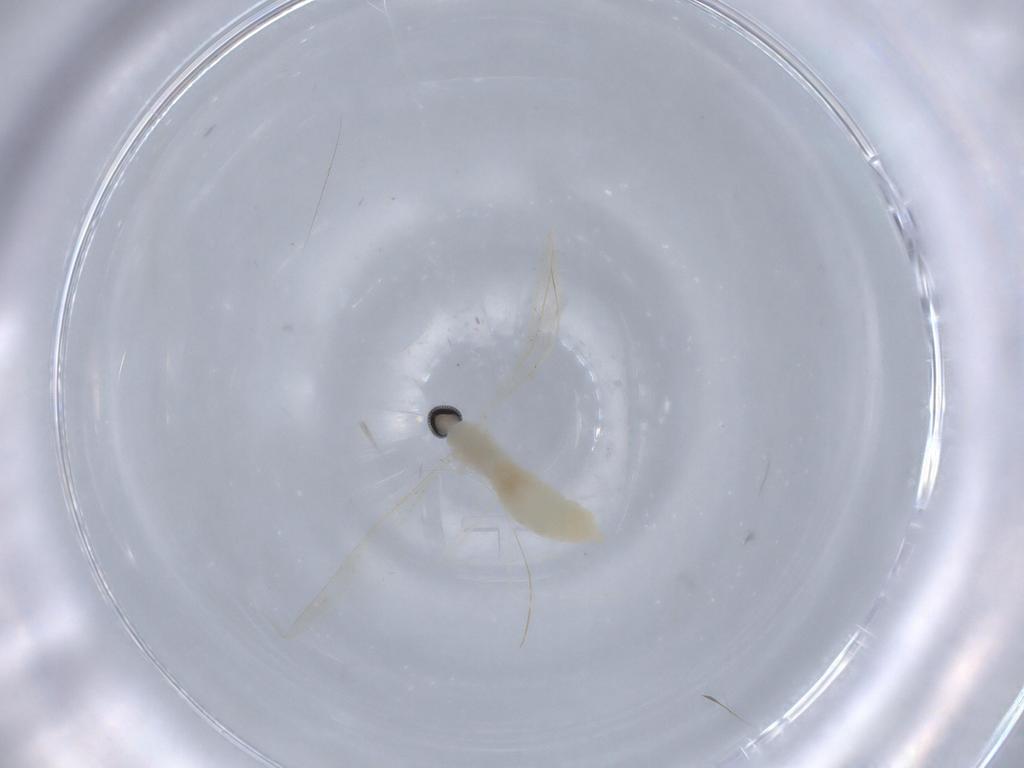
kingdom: Animalia
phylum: Arthropoda
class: Insecta
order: Diptera
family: Cecidomyiidae
